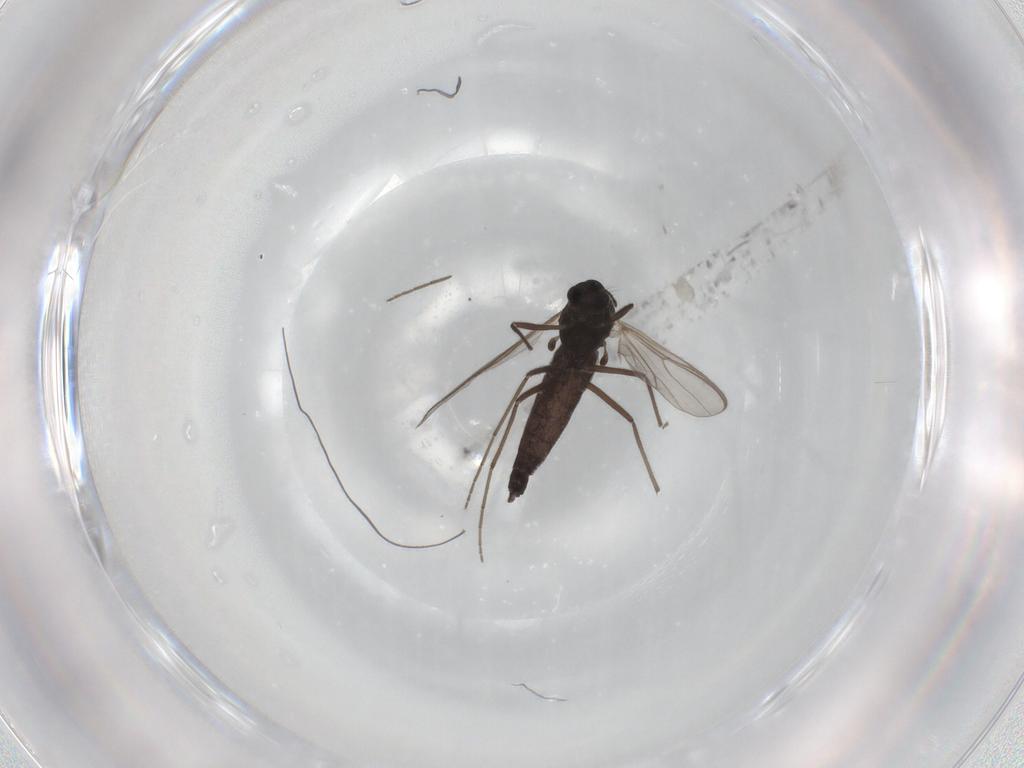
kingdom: Animalia
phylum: Arthropoda
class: Insecta
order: Diptera
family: Chironomidae
